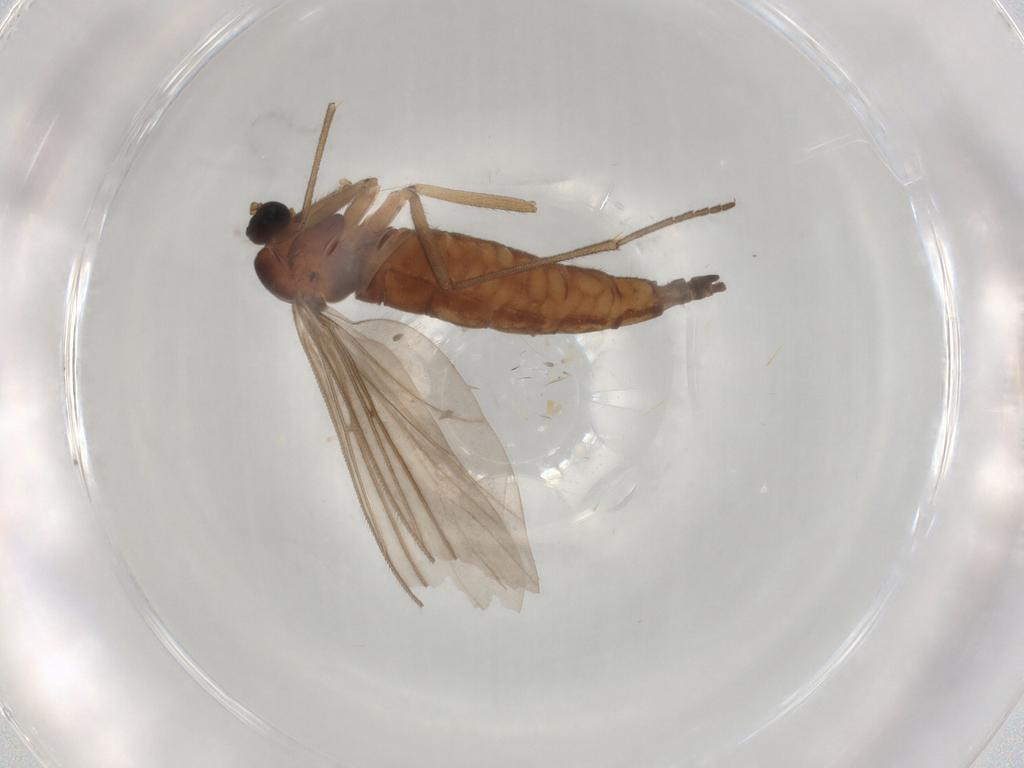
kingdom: Animalia
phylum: Arthropoda
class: Insecta
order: Diptera
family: Sciaridae
